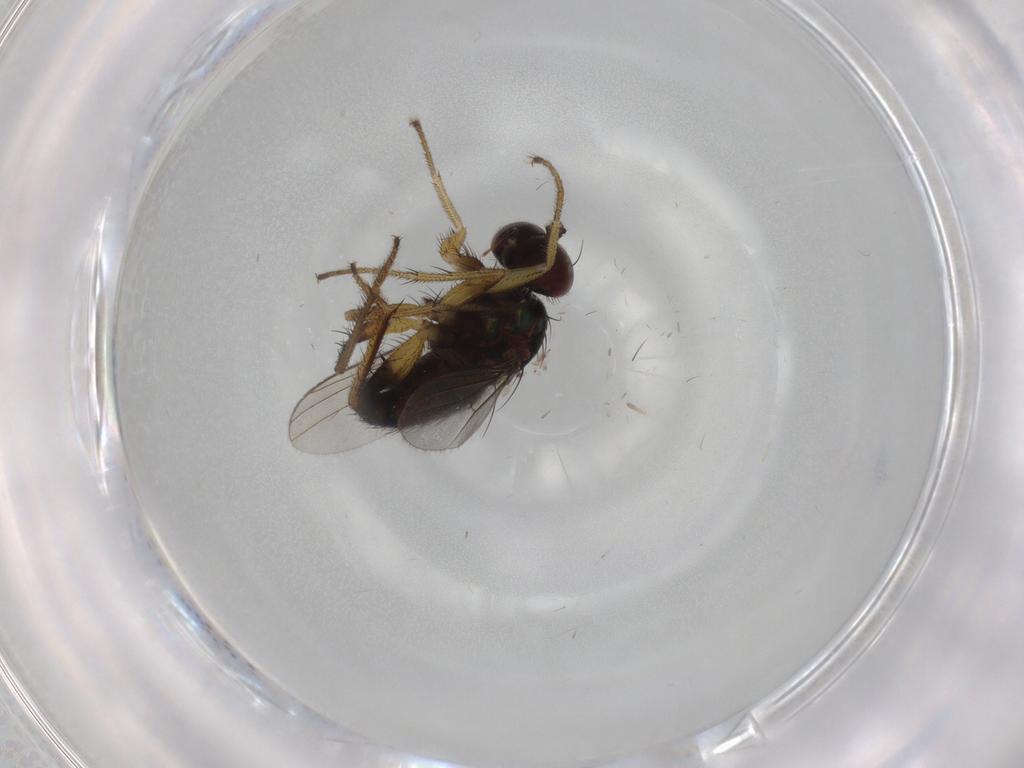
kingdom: Animalia
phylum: Arthropoda
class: Insecta
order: Diptera
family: Dolichopodidae
